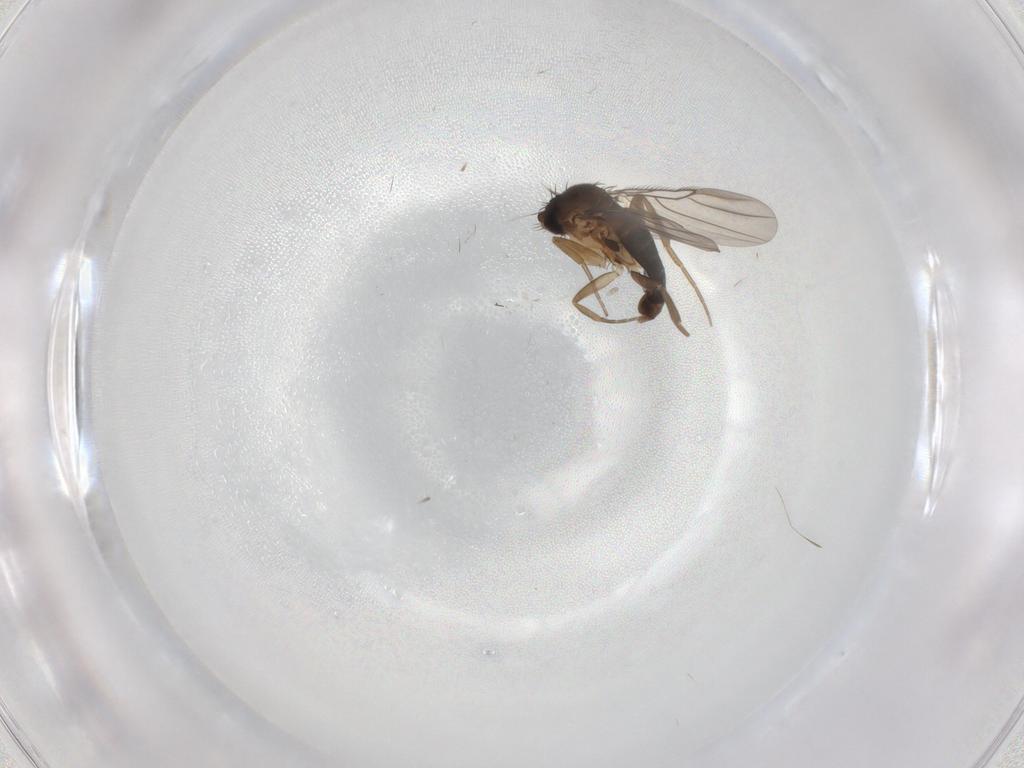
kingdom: Animalia
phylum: Arthropoda
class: Insecta
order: Diptera
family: Phoridae
